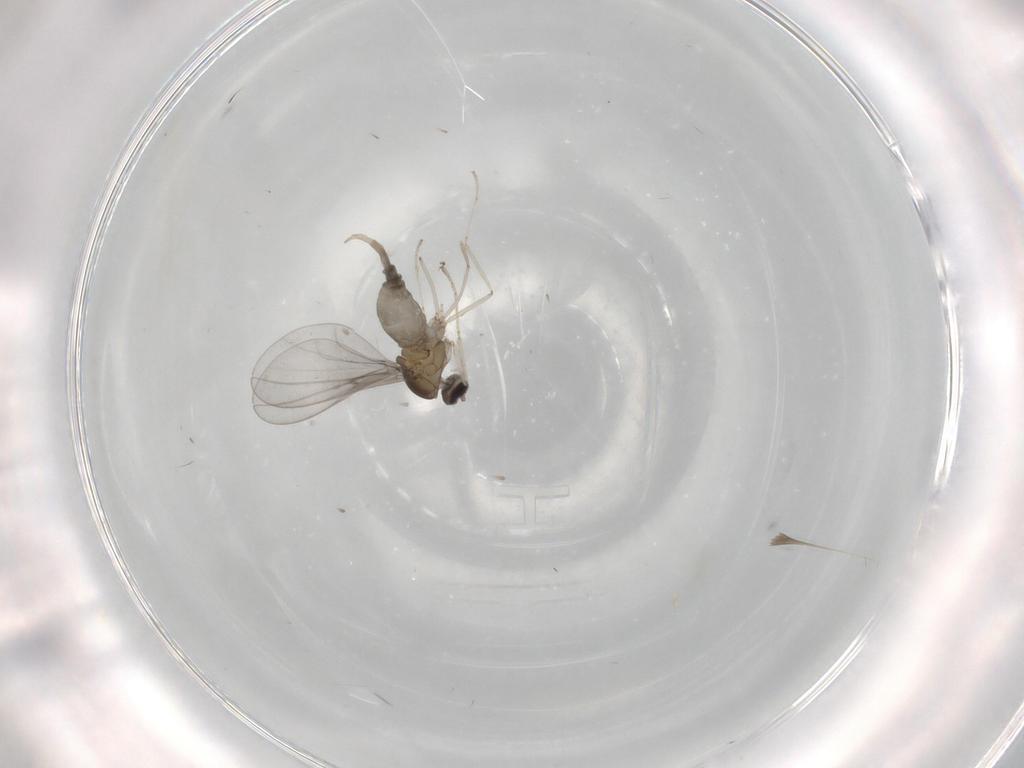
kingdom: Animalia
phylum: Arthropoda
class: Insecta
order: Diptera
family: Cecidomyiidae
